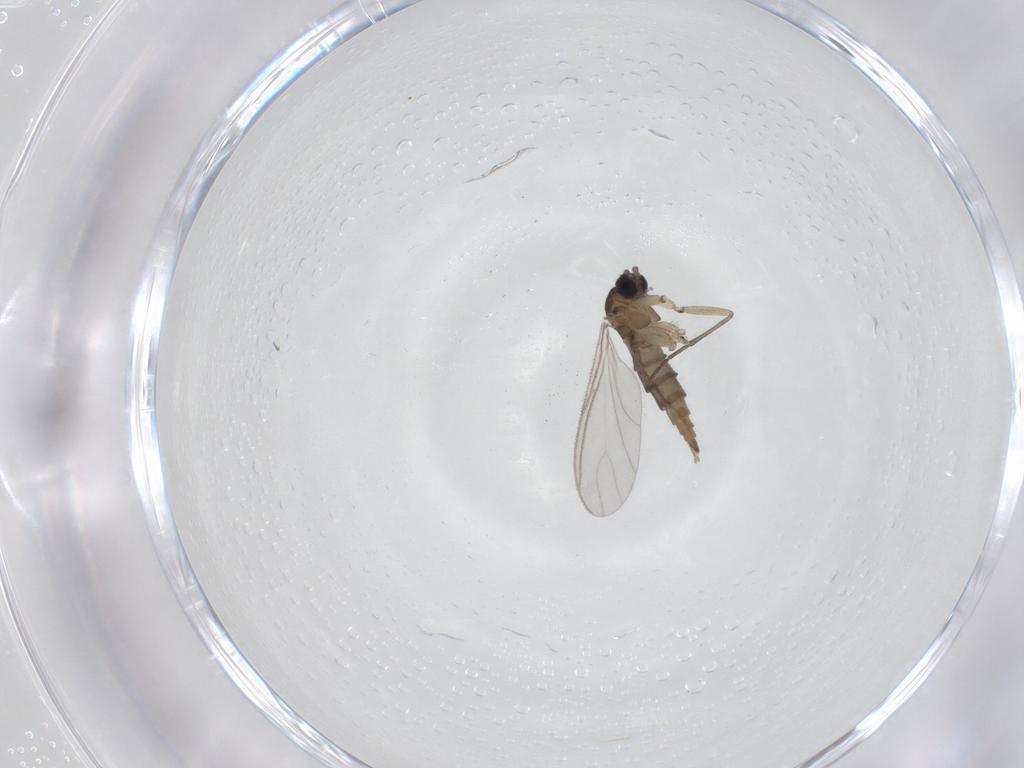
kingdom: Animalia
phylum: Arthropoda
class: Insecta
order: Diptera
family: Sciaridae
